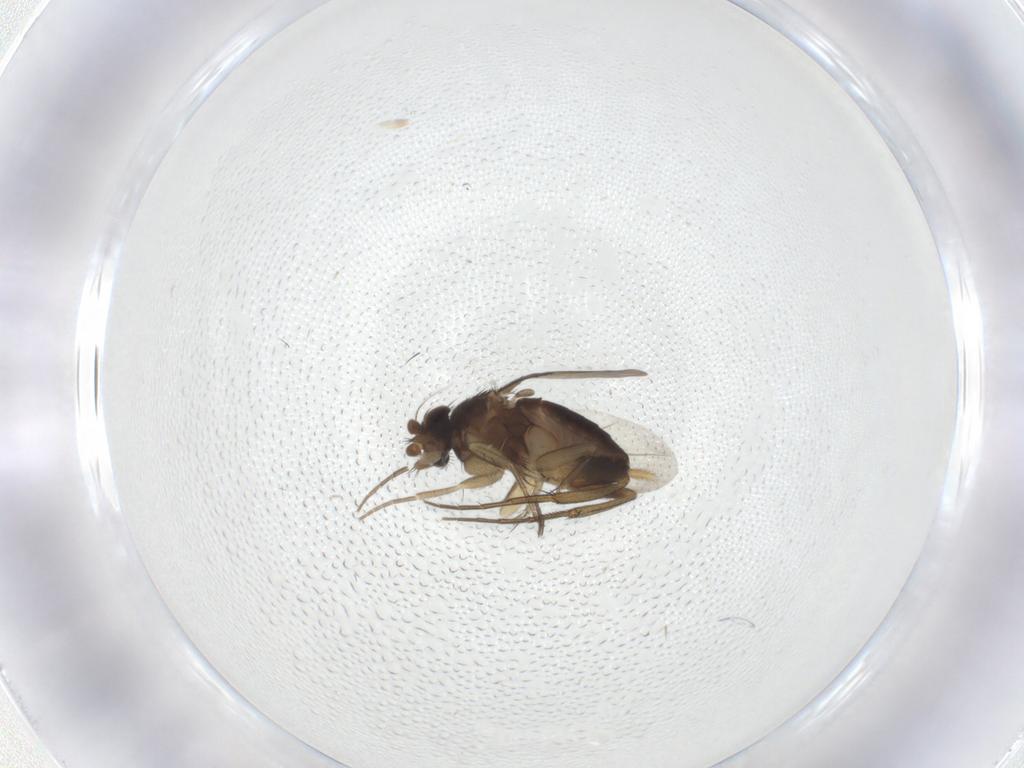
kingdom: Animalia
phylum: Arthropoda
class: Insecta
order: Diptera
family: Phoridae
